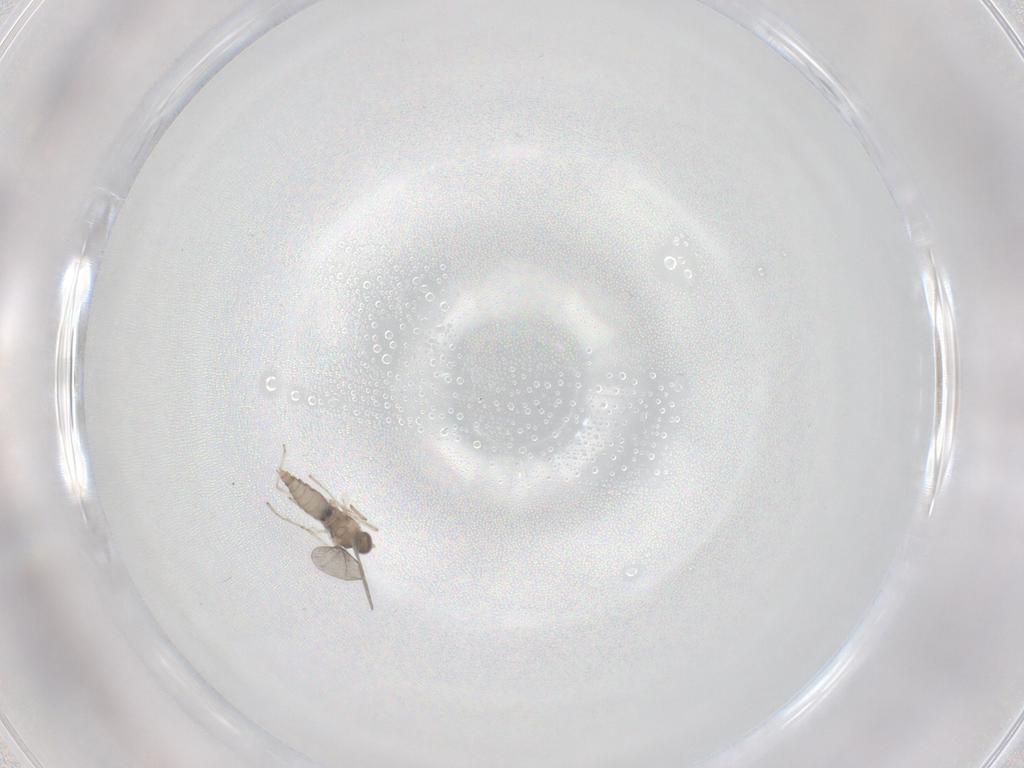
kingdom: Animalia
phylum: Arthropoda
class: Insecta
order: Diptera
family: Cecidomyiidae
